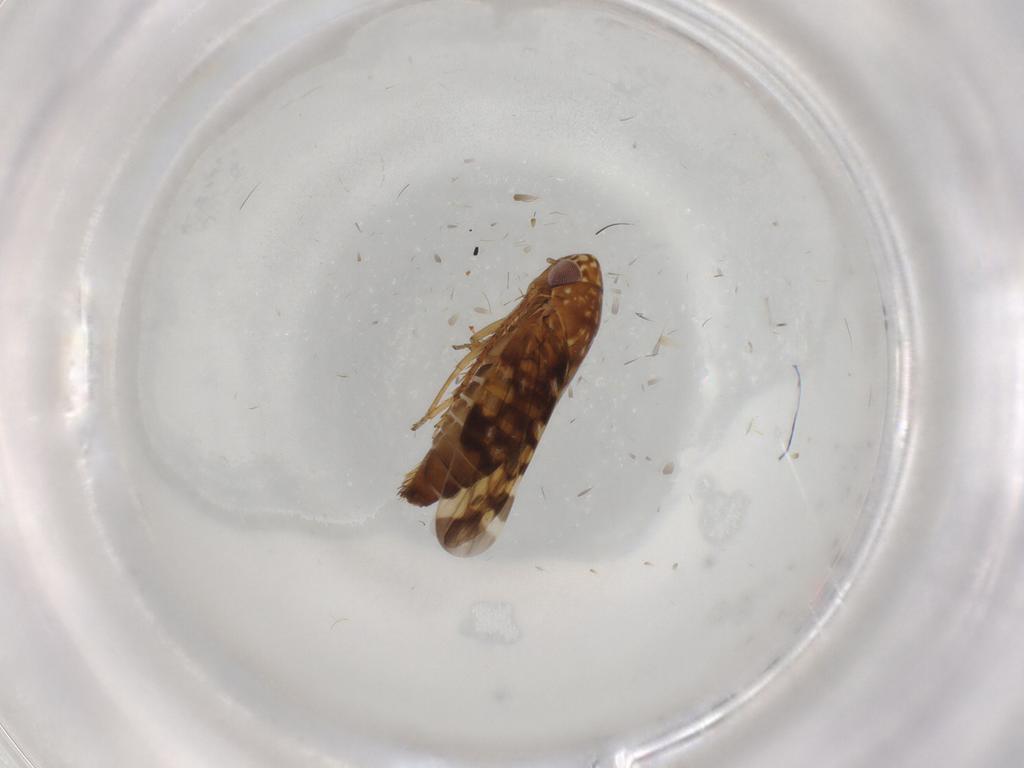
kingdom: Animalia
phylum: Arthropoda
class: Insecta
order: Hemiptera
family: Cicadellidae
